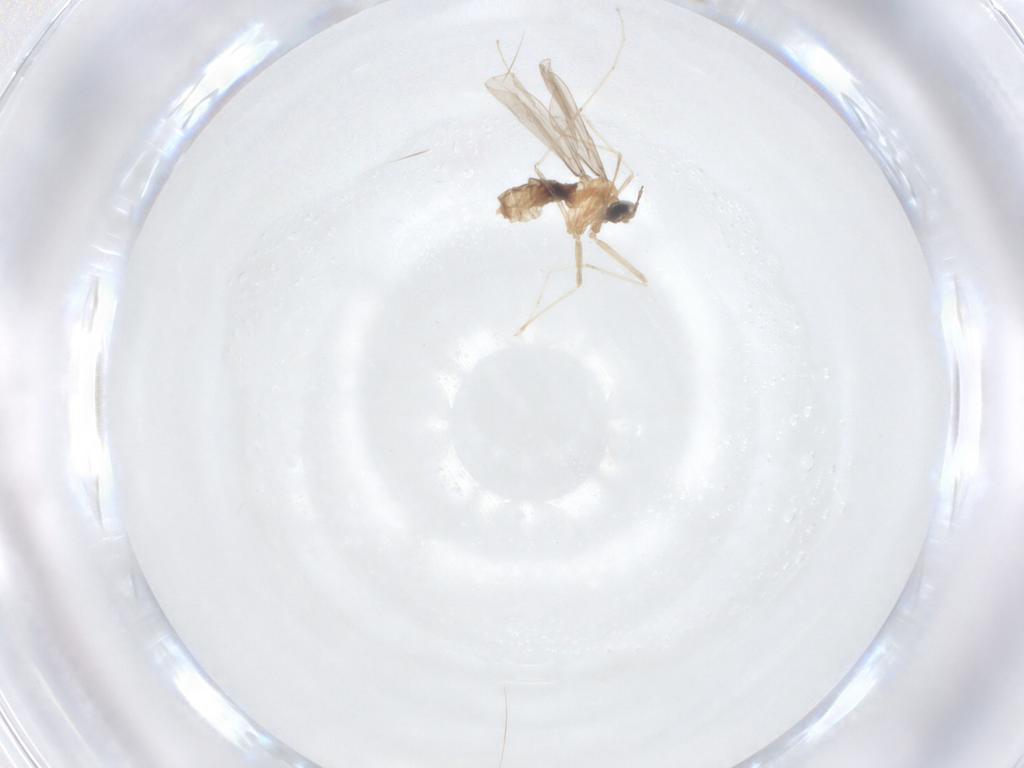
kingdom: Animalia
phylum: Arthropoda
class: Insecta
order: Diptera
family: Cecidomyiidae
